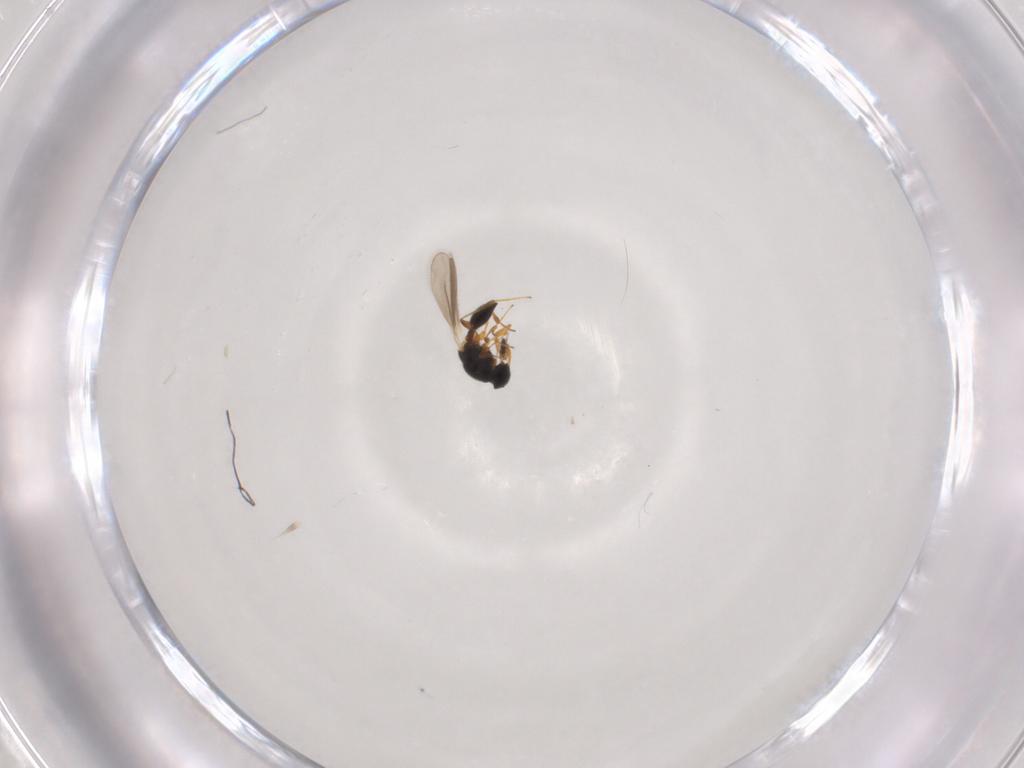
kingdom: Animalia
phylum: Arthropoda
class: Insecta
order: Hymenoptera
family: Platygastridae
